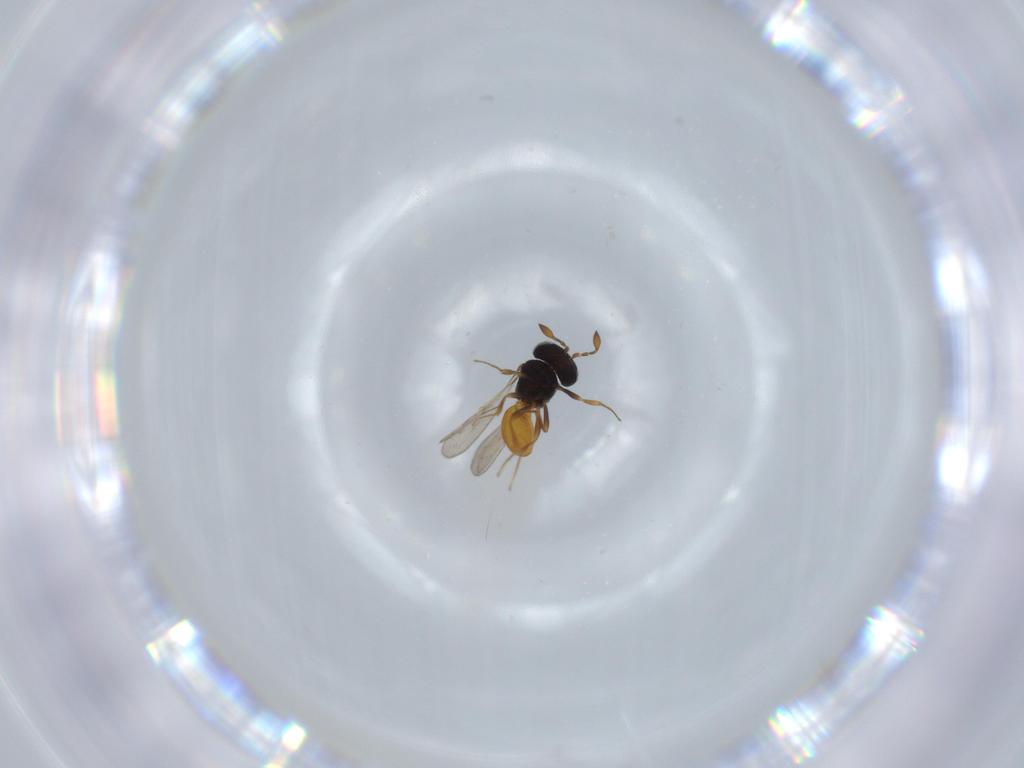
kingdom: Animalia
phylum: Arthropoda
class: Insecta
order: Hymenoptera
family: Scelionidae
